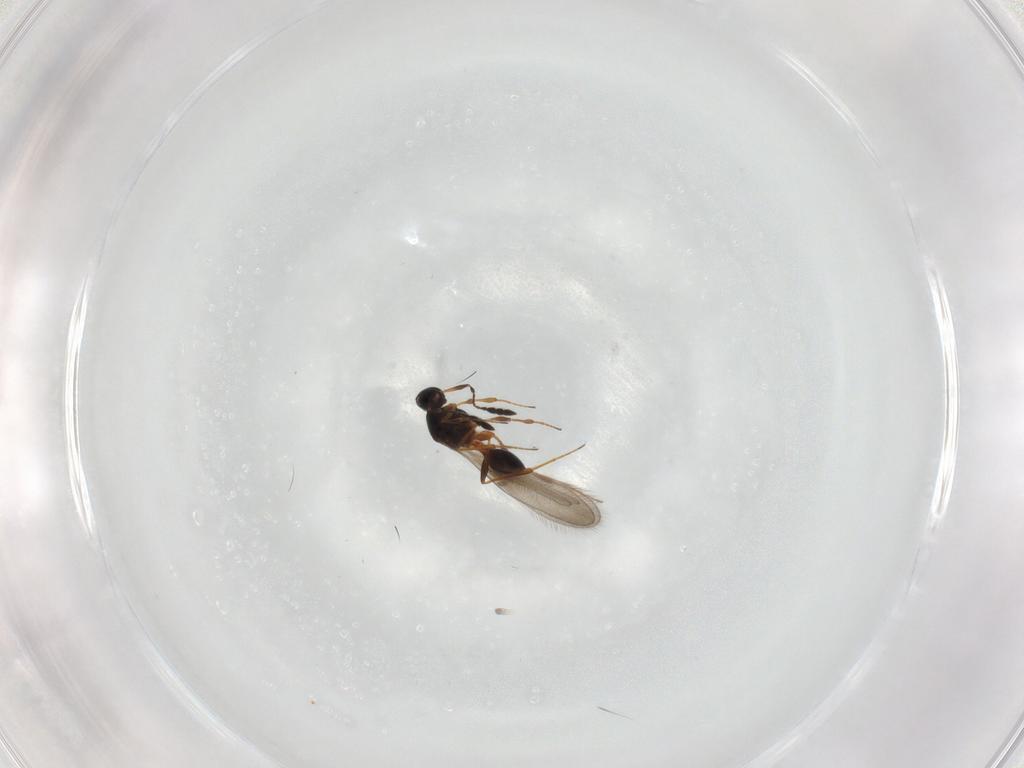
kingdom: Animalia
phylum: Arthropoda
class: Insecta
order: Hymenoptera
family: Platygastridae
